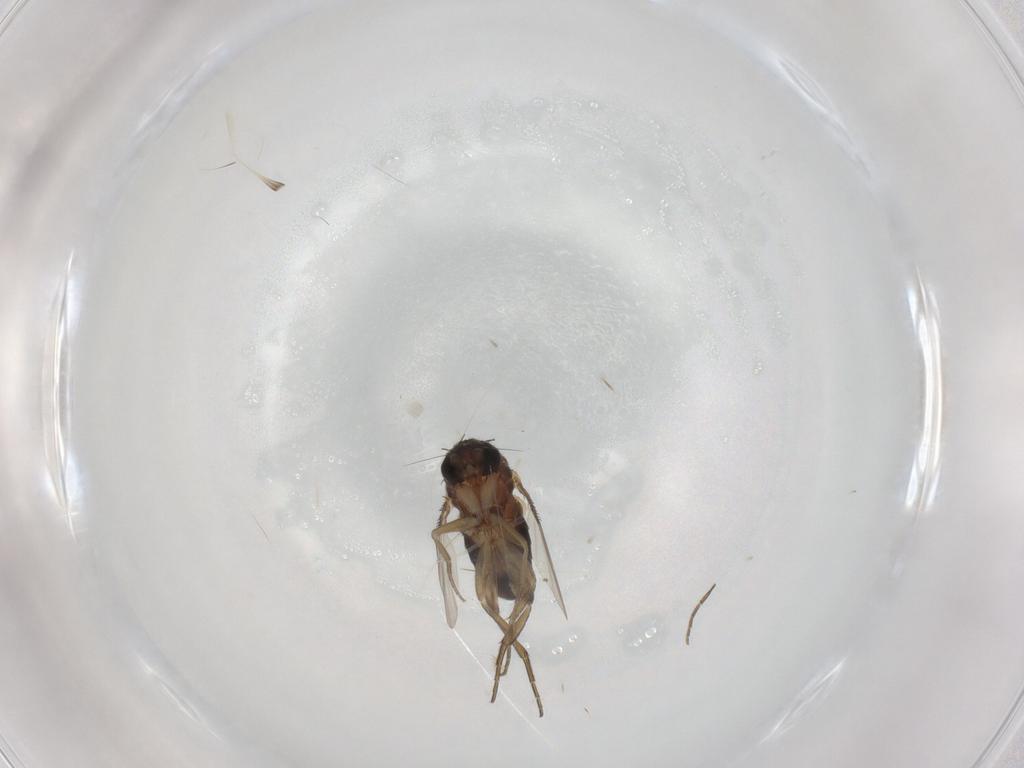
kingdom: Animalia
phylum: Arthropoda
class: Insecta
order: Diptera
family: Phoridae
